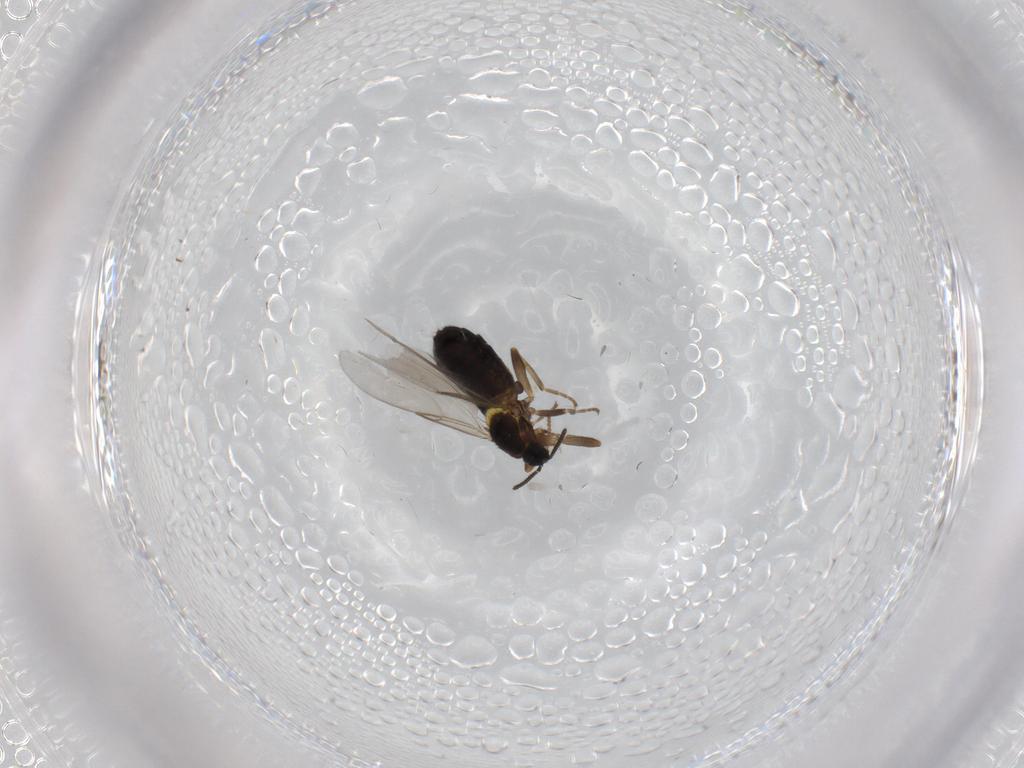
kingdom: Animalia
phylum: Arthropoda
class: Insecta
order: Diptera
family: Scatopsidae
